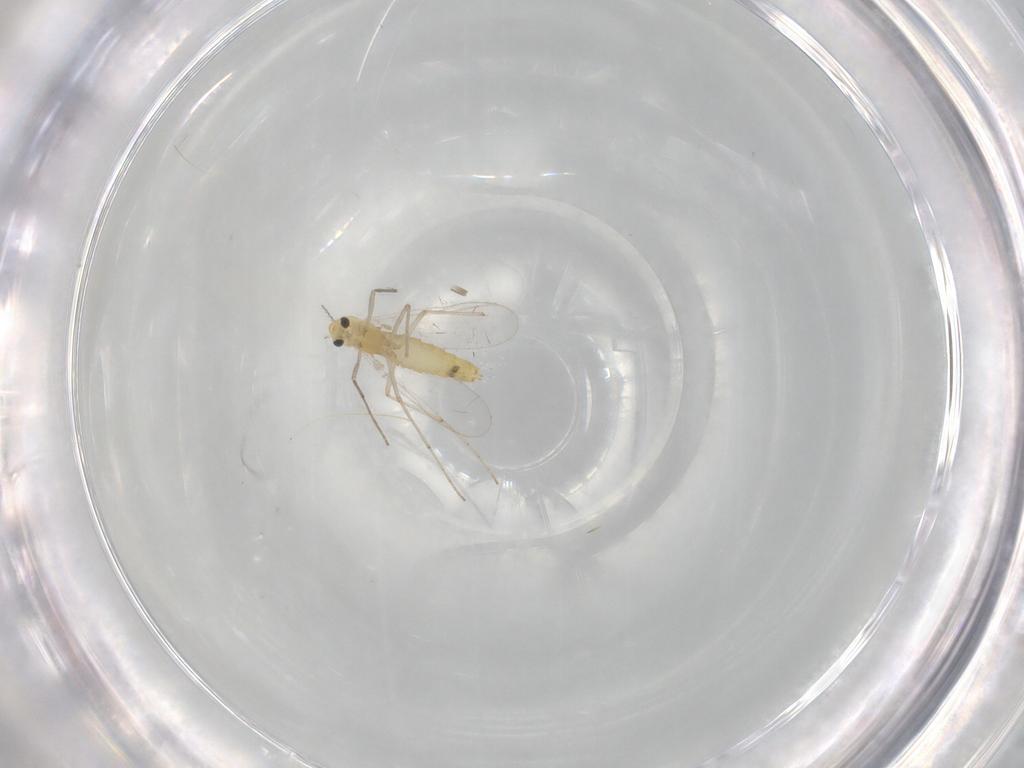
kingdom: Animalia
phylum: Arthropoda
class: Insecta
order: Diptera
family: Chironomidae
